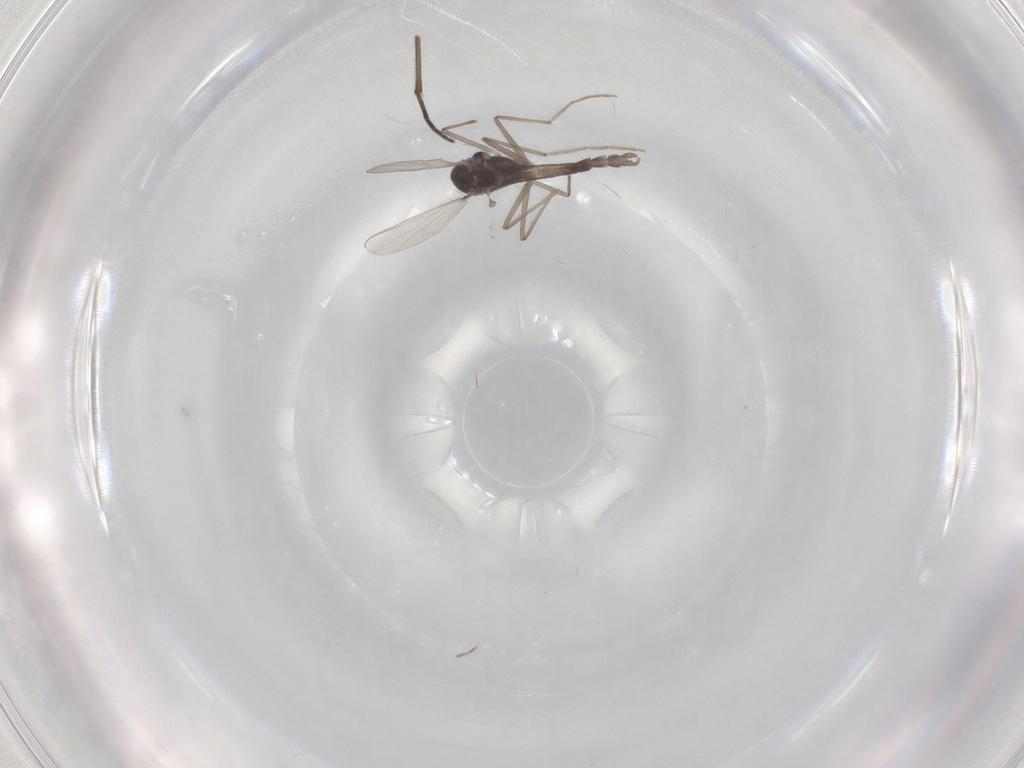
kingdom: Animalia
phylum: Arthropoda
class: Insecta
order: Diptera
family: Chironomidae
